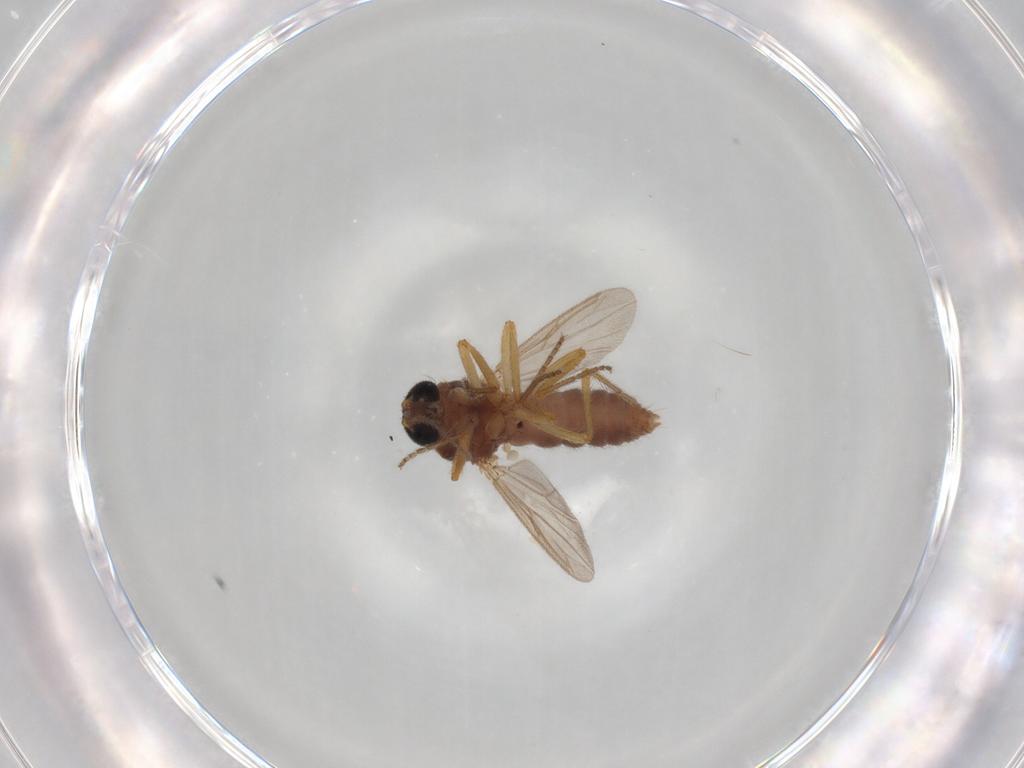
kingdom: Animalia
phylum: Arthropoda
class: Insecta
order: Diptera
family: Ceratopogonidae
